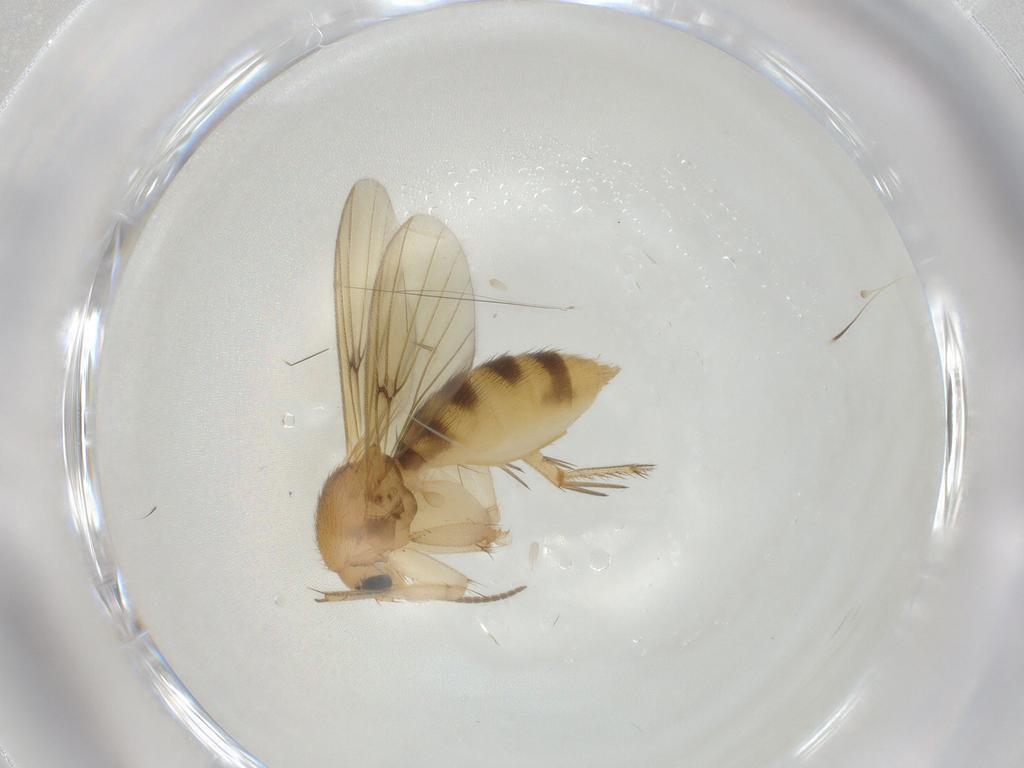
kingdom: Animalia
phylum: Arthropoda
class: Insecta
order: Diptera
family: Mycetophilidae
